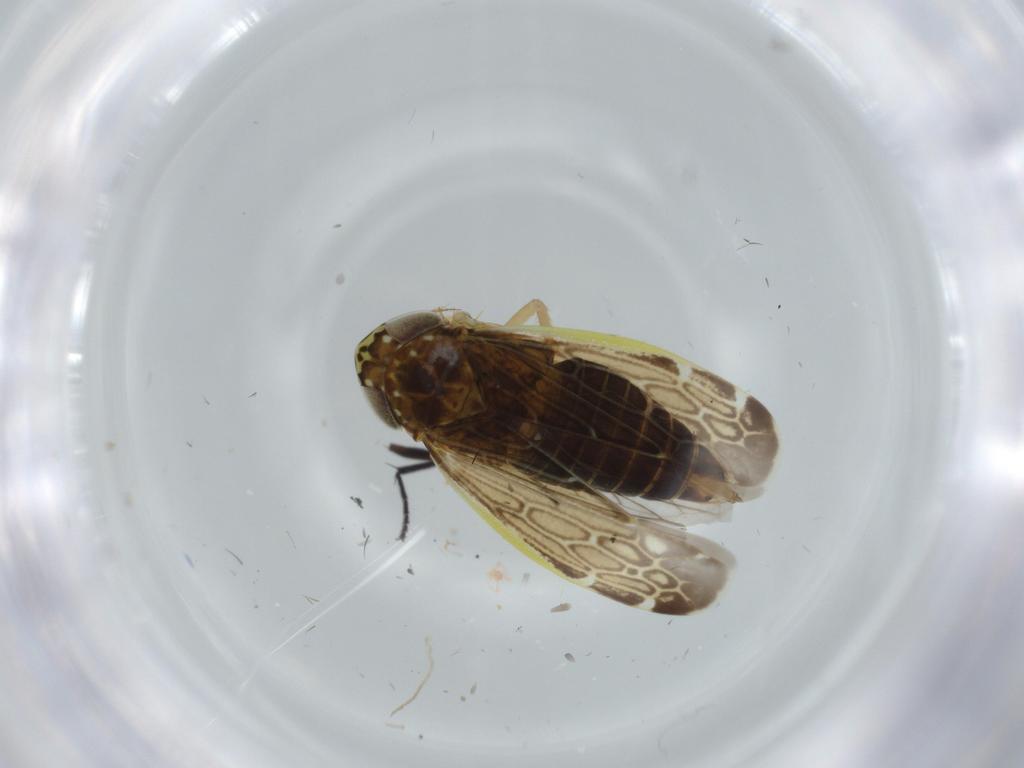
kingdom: Animalia
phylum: Arthropoda
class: Insecta
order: Hemiptera
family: Cicadellidae
